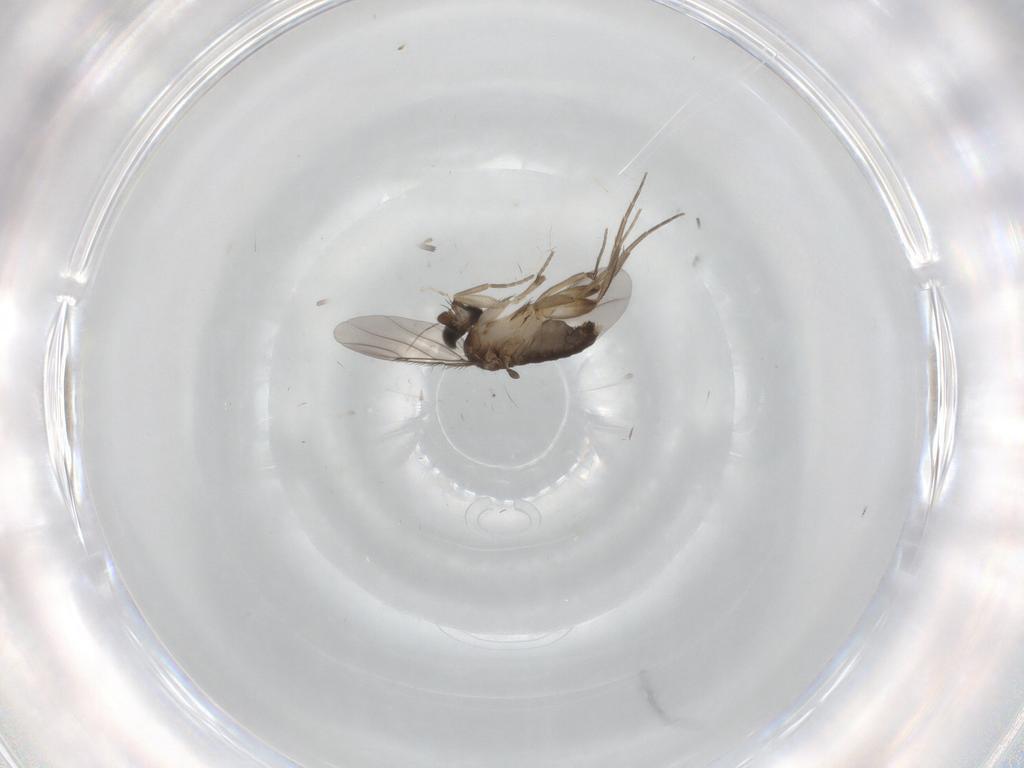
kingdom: Animalia
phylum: Arthropoda
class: Insecta
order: Diptera
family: Phoridae
